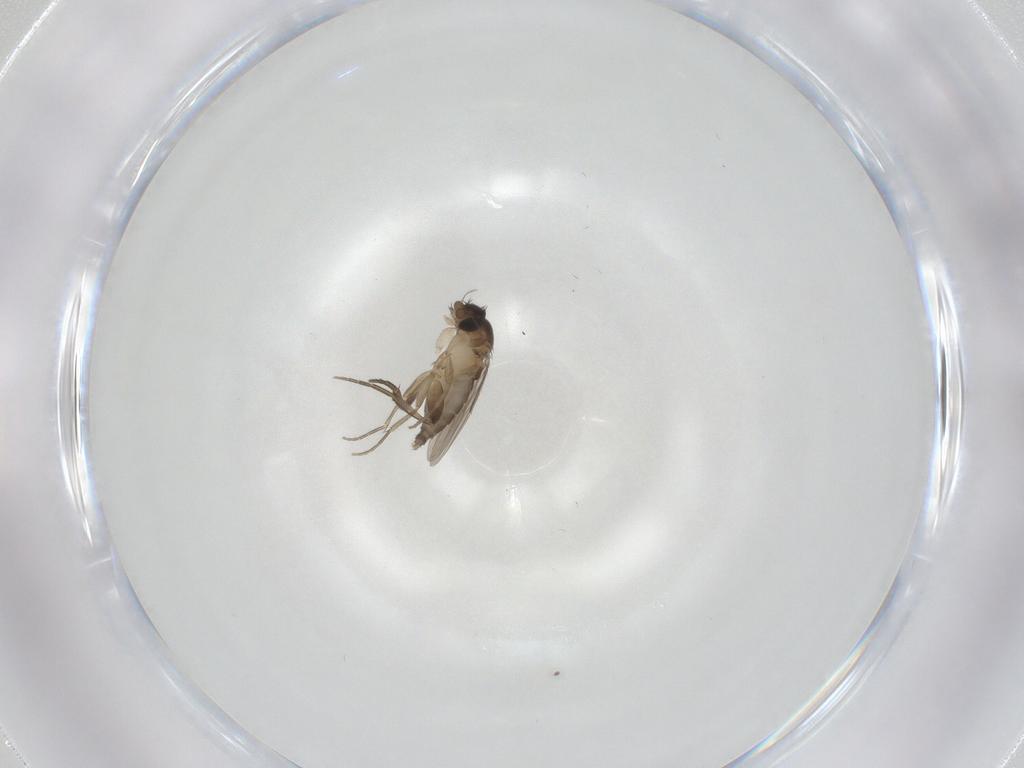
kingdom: Animalia
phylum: Arthropoda
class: Insecta
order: Diptera
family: Phoridae
